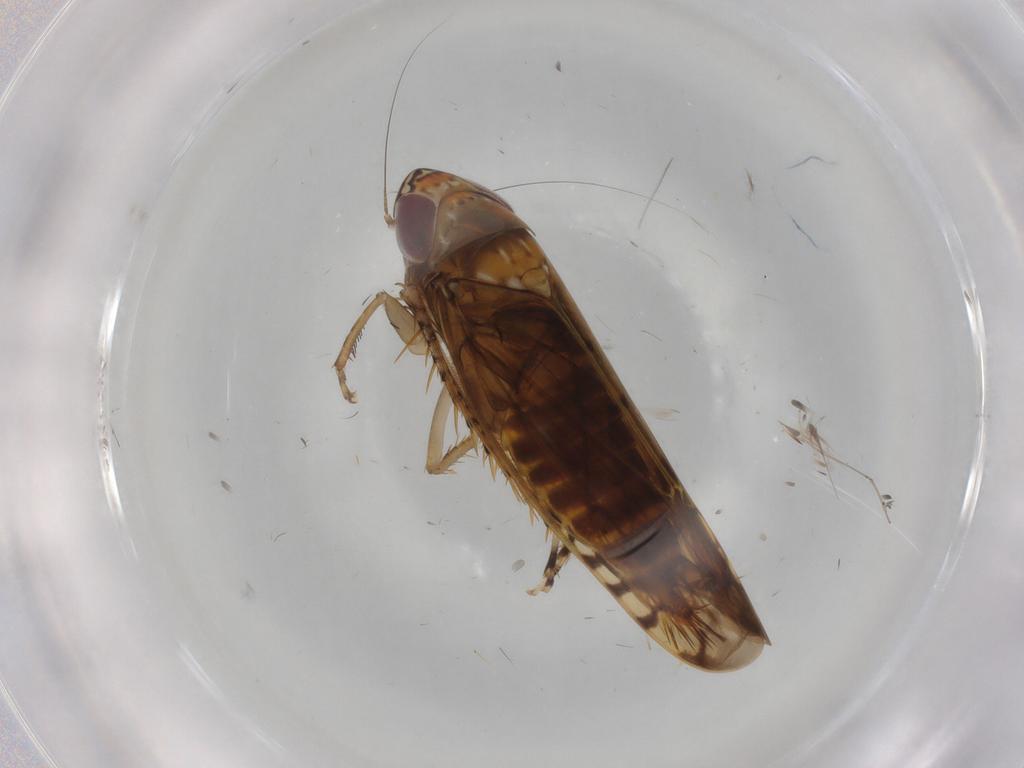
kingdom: Animalia
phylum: Arthropoda
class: Insecta
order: Hemiptera
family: Cicadellidae
